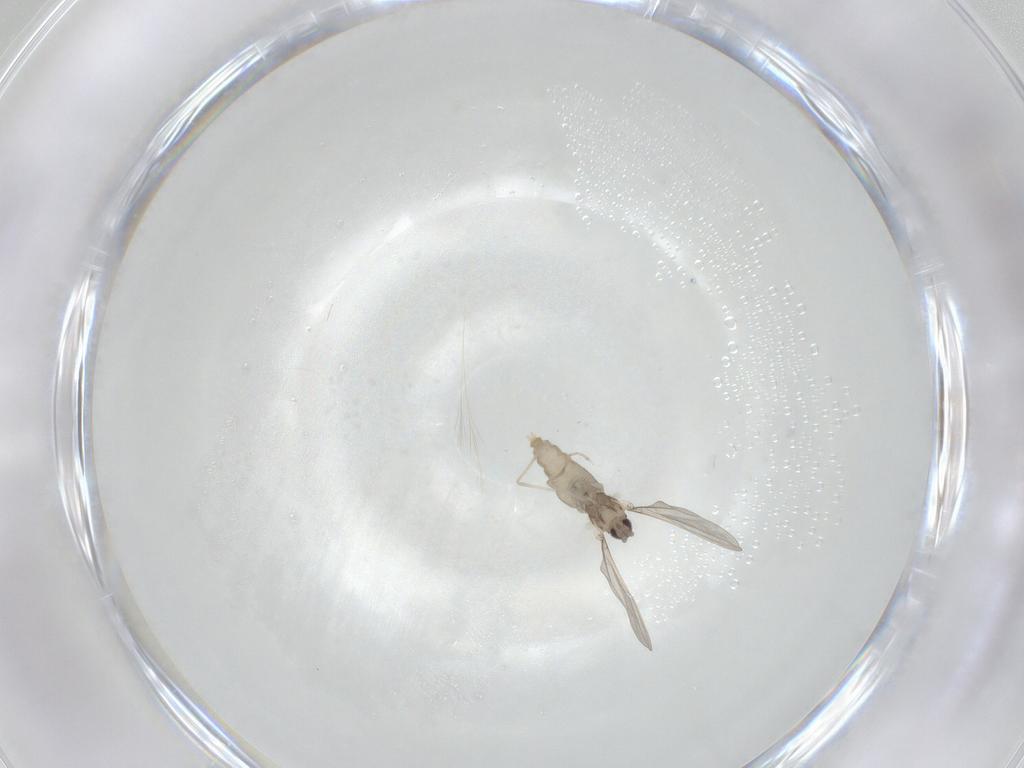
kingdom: Animalia
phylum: Arthropoda
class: Insecta
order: Diptera
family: Cecidomyiidae
